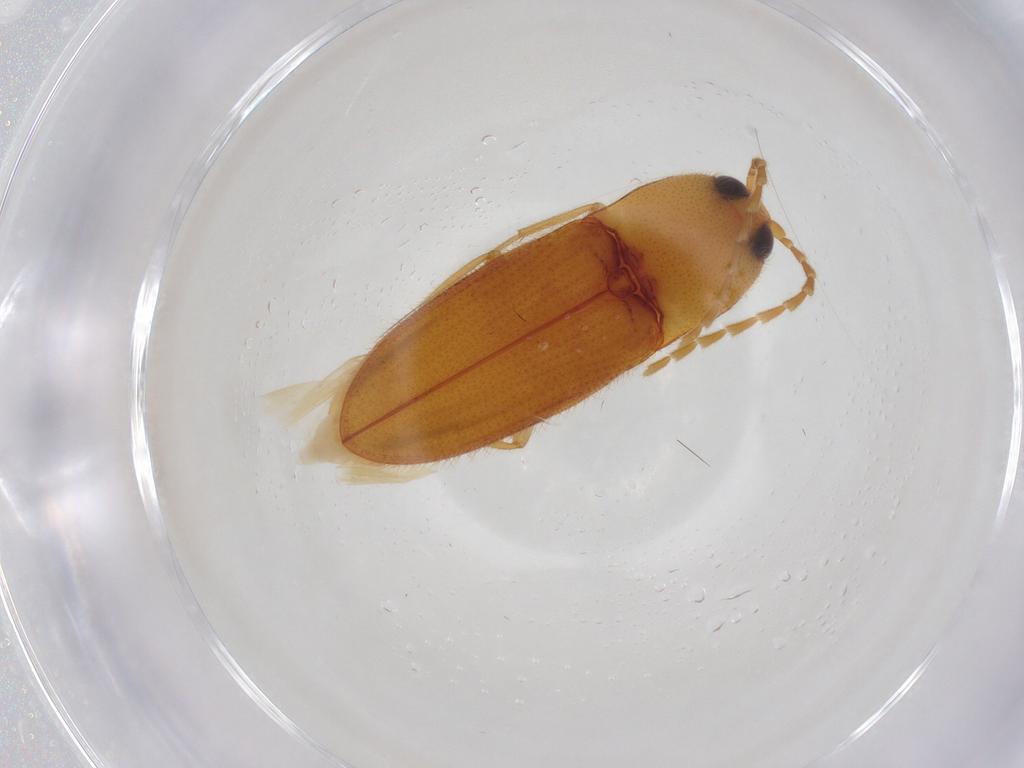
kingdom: Animalia
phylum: Arthropoda
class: Insecta
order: Coleoptera
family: Elateridae
